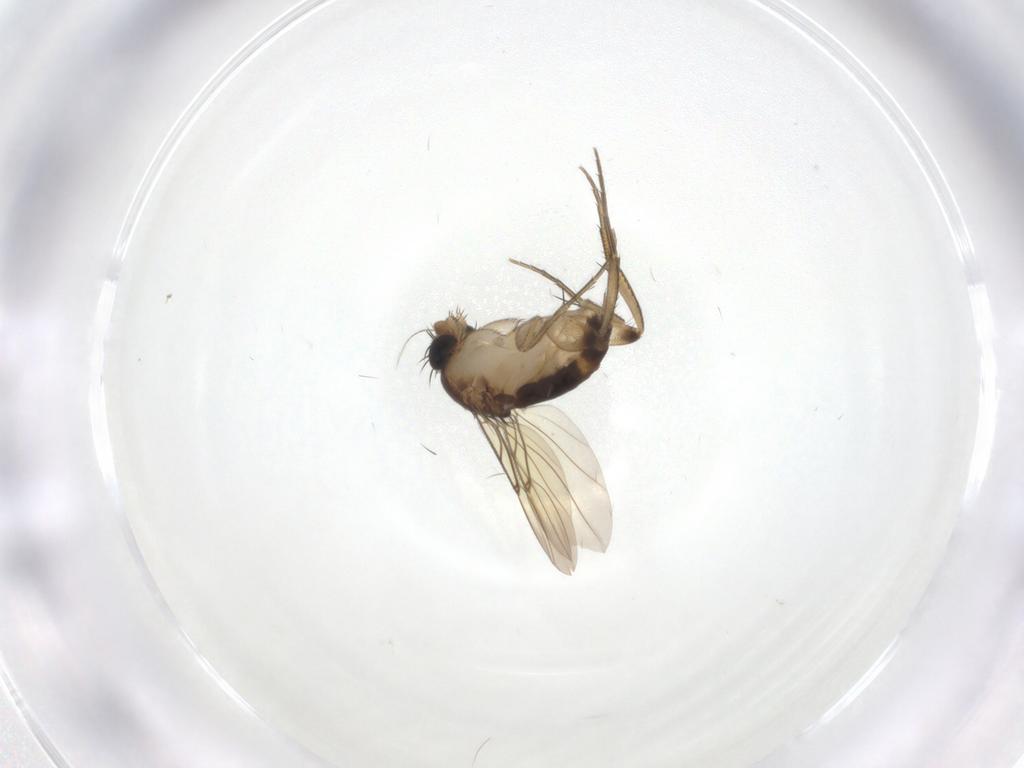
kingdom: Animalia
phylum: Arthropoda
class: Insecta
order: Diptera
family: Phoridae
